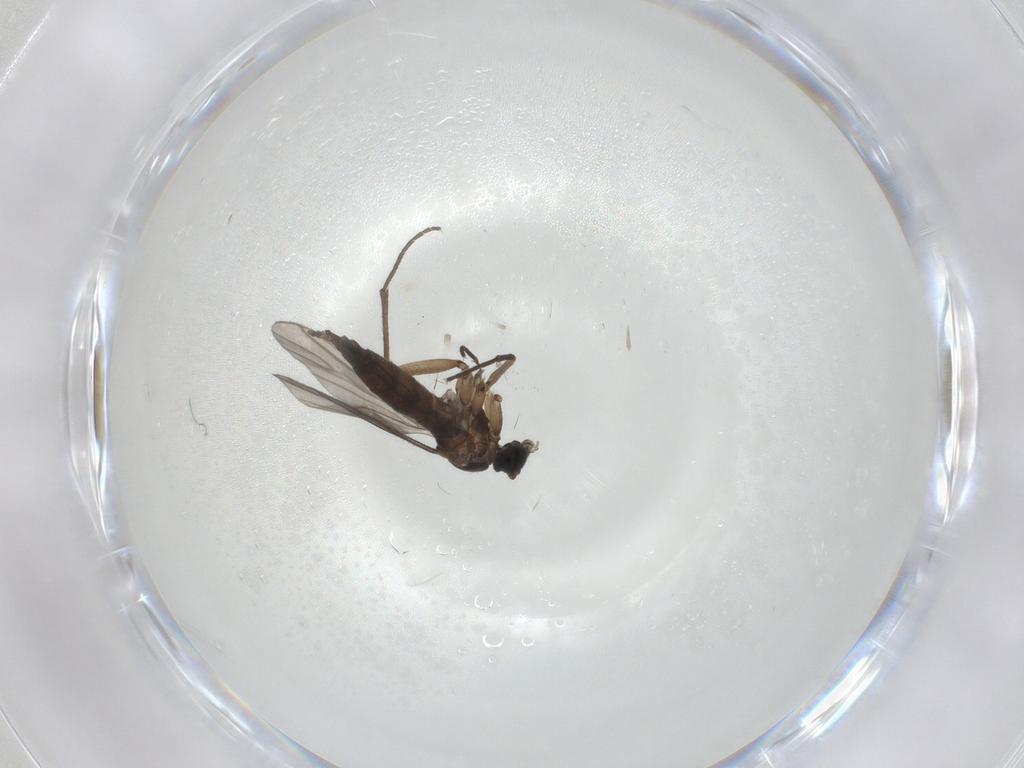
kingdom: Animalia
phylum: Arthropoda
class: Insecta
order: Diptera
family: Sciaridae
